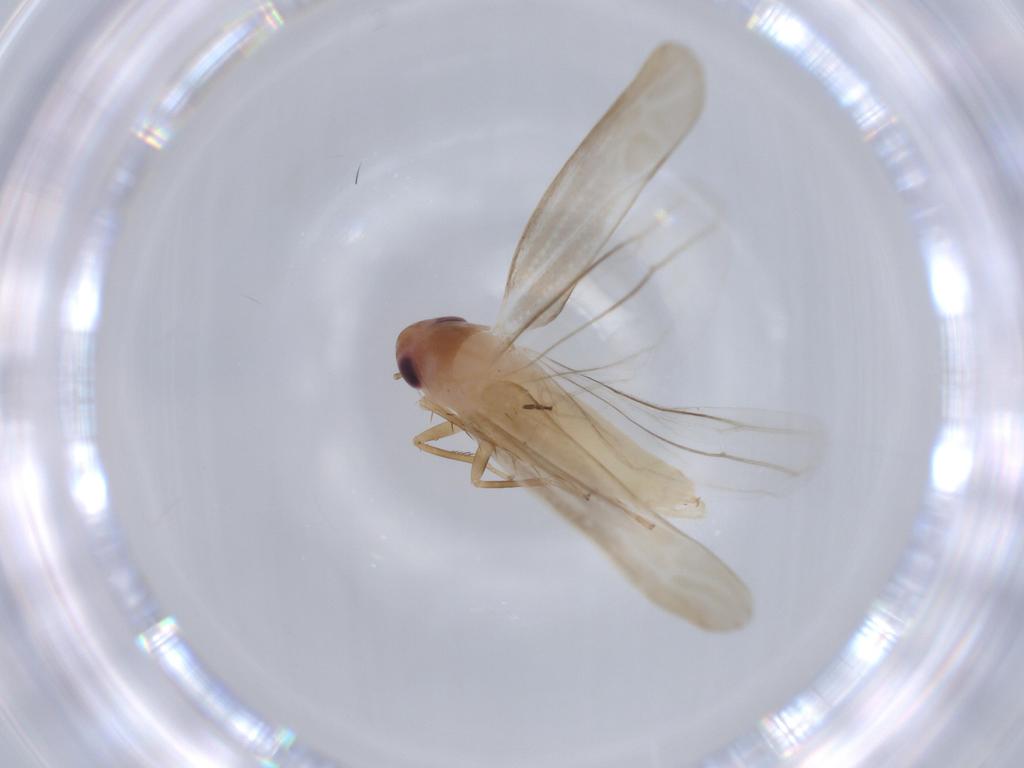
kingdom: Animalia
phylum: Arthropoda
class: Insecta
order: Hemiptera
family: Cicadellidae
